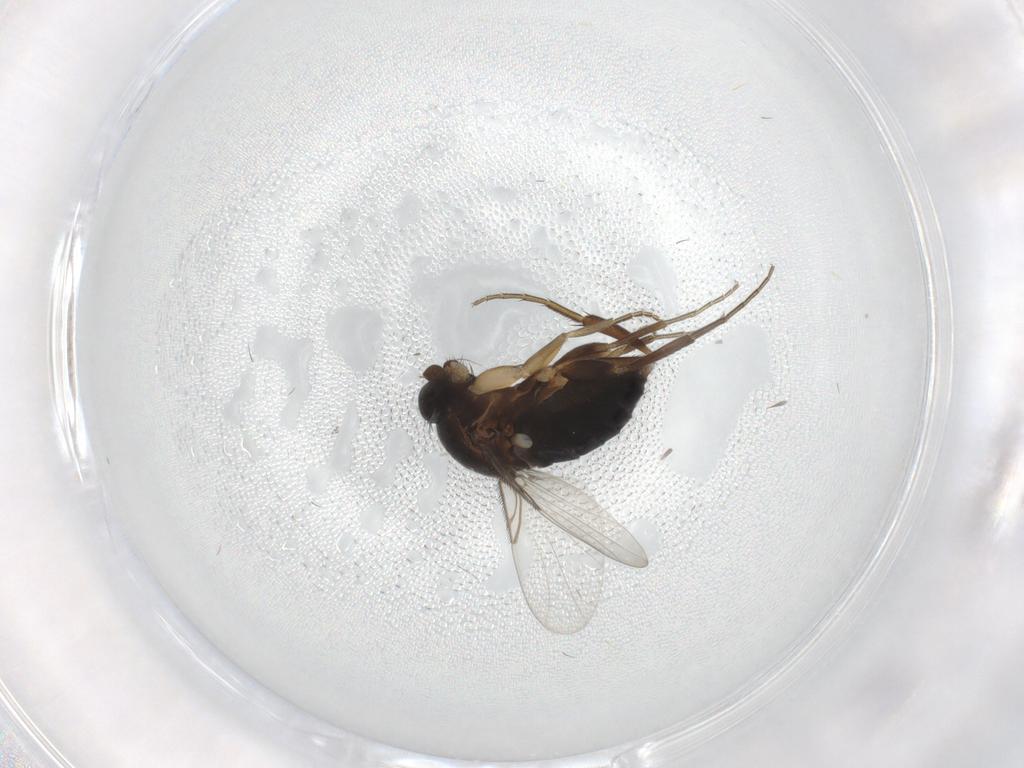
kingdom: Animalia
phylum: Arthropoda
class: Insecta
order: Diptera
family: Phoridae
